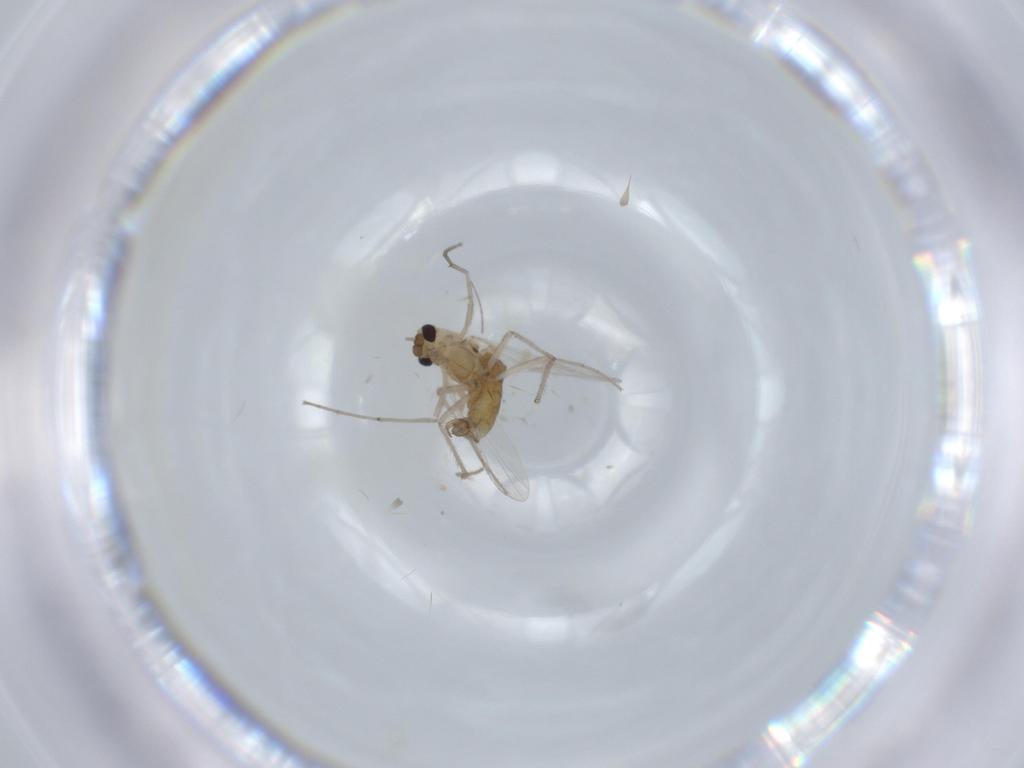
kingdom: Animalia
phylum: Arthropoda
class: Insecta
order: Diptera
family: Chironomidae
